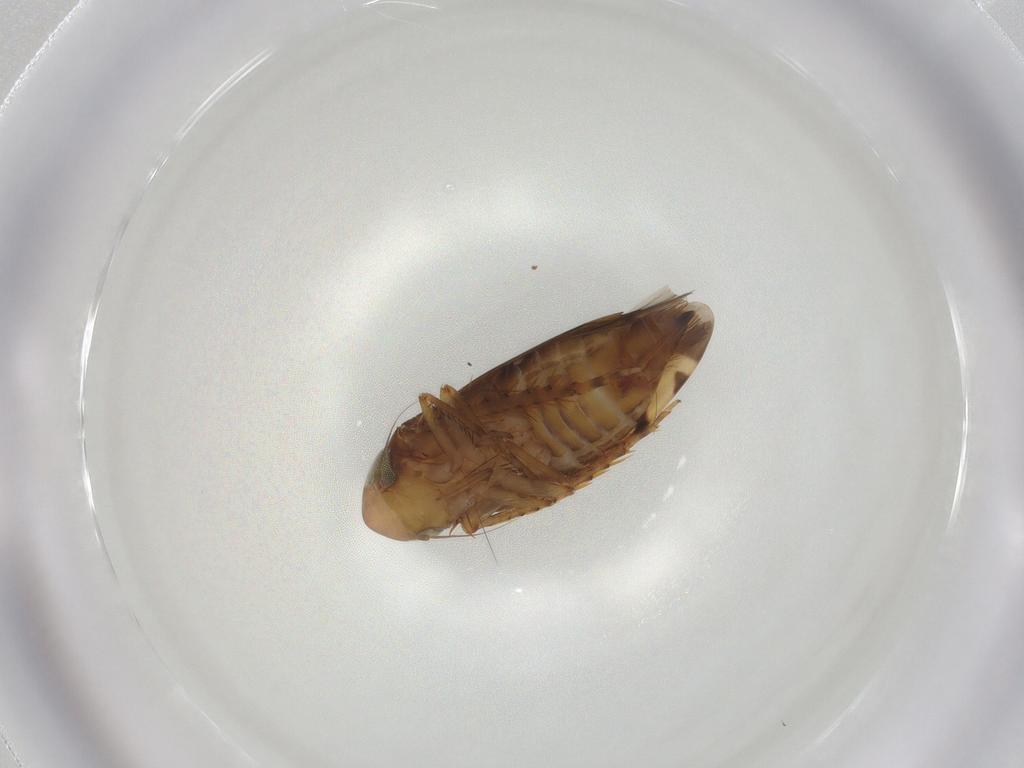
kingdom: Animalia
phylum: Arthropoda
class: Insecta
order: Hemiptera
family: Cicadellidae
